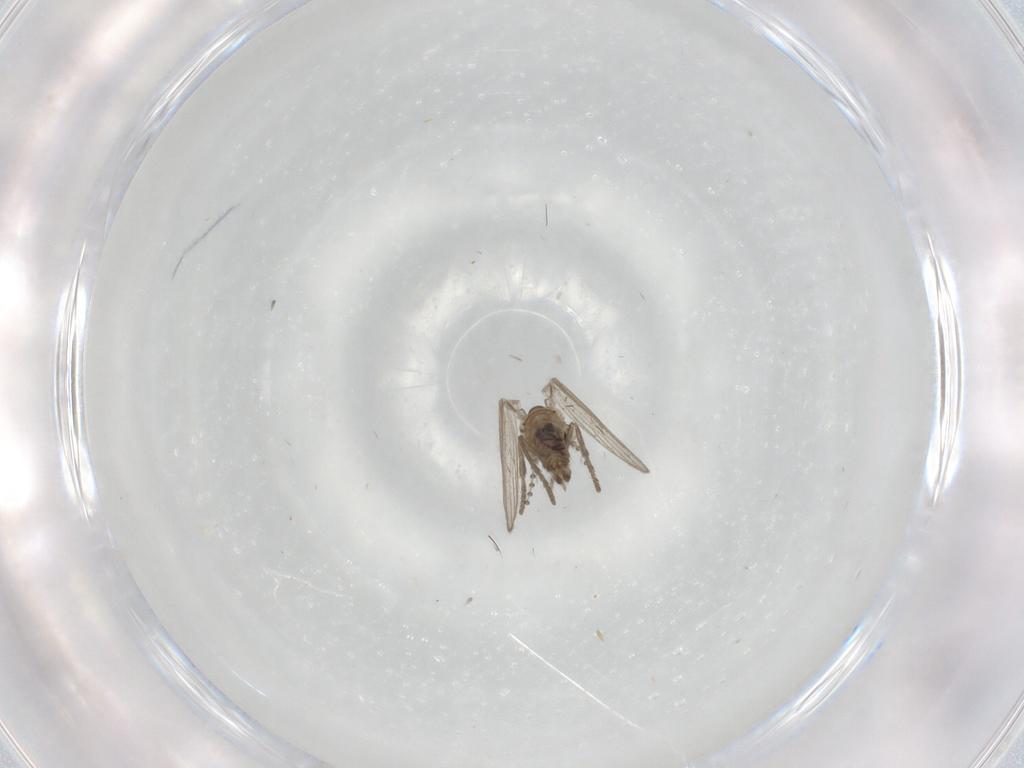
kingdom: Animalia
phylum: Arthropoda
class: Insecta
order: Diptera
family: Psychodidae
